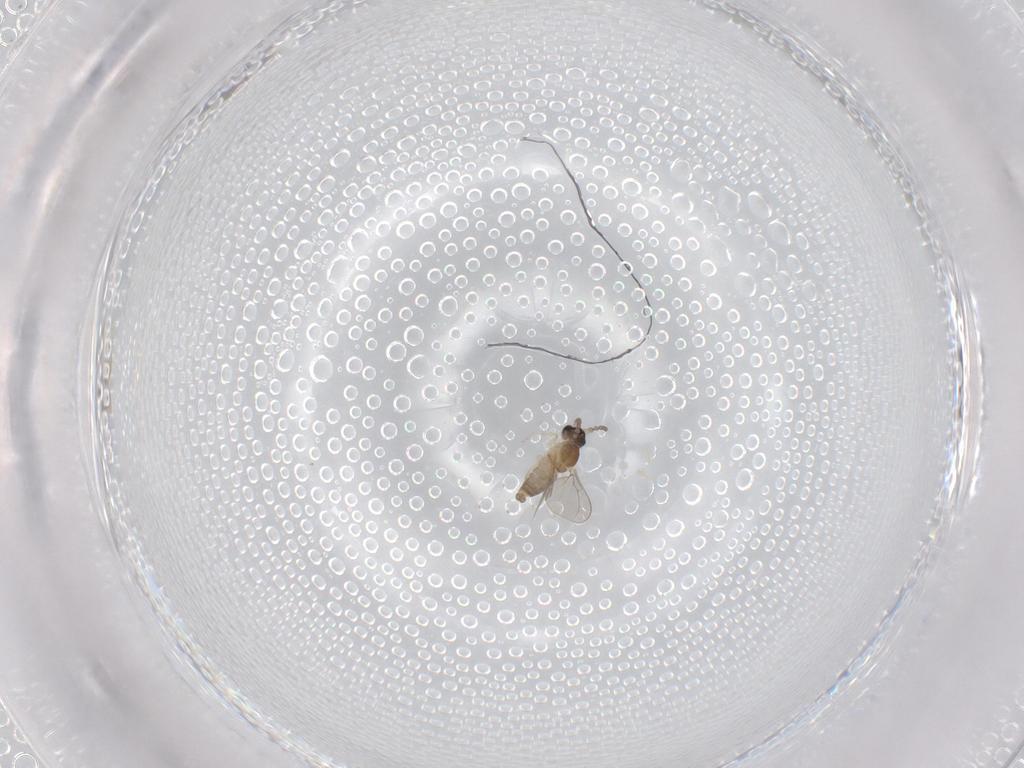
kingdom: Animalia
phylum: Arthropoda
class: Insecta
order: Diptera
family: Cecidomyiidae
